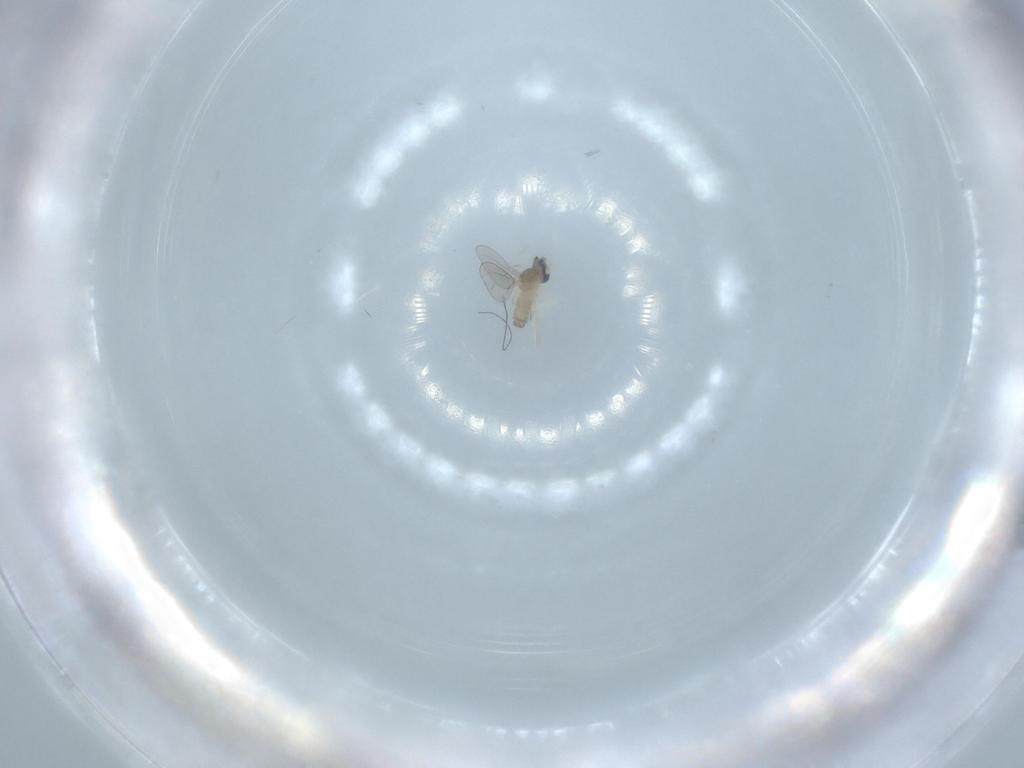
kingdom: Animalia
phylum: Arthropoda
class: Insecta
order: Diptera
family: Cecidomyiidae
